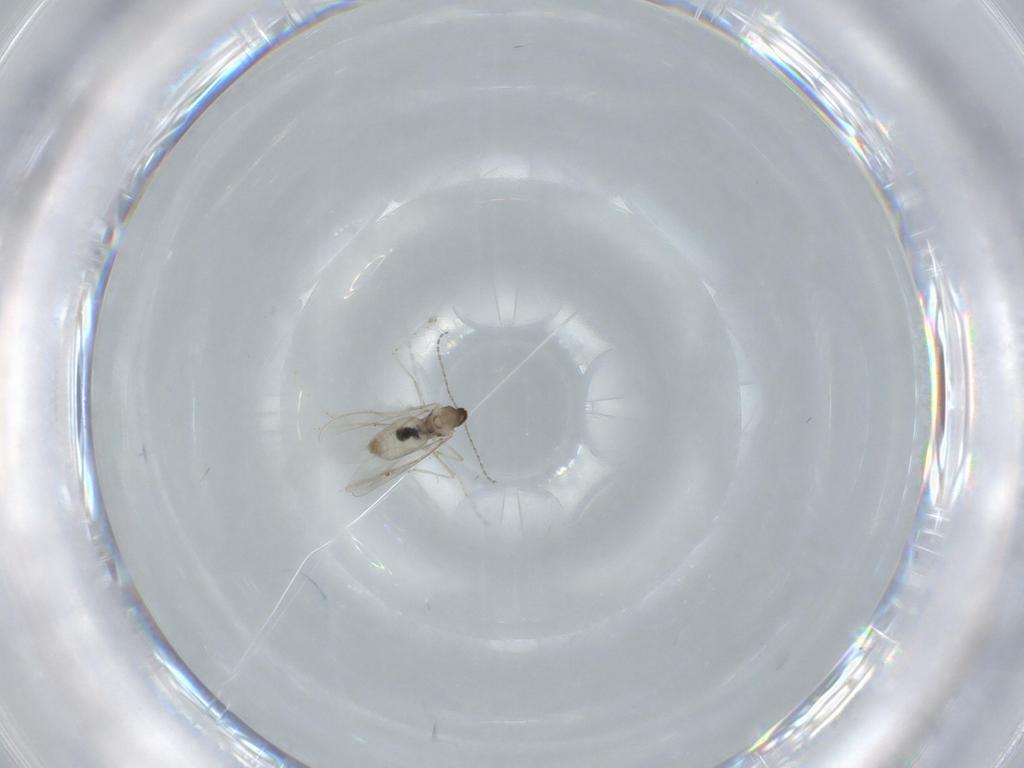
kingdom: Animalia
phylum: Arthropoda
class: Insecta
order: Diptera
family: Cecidomyiidae
